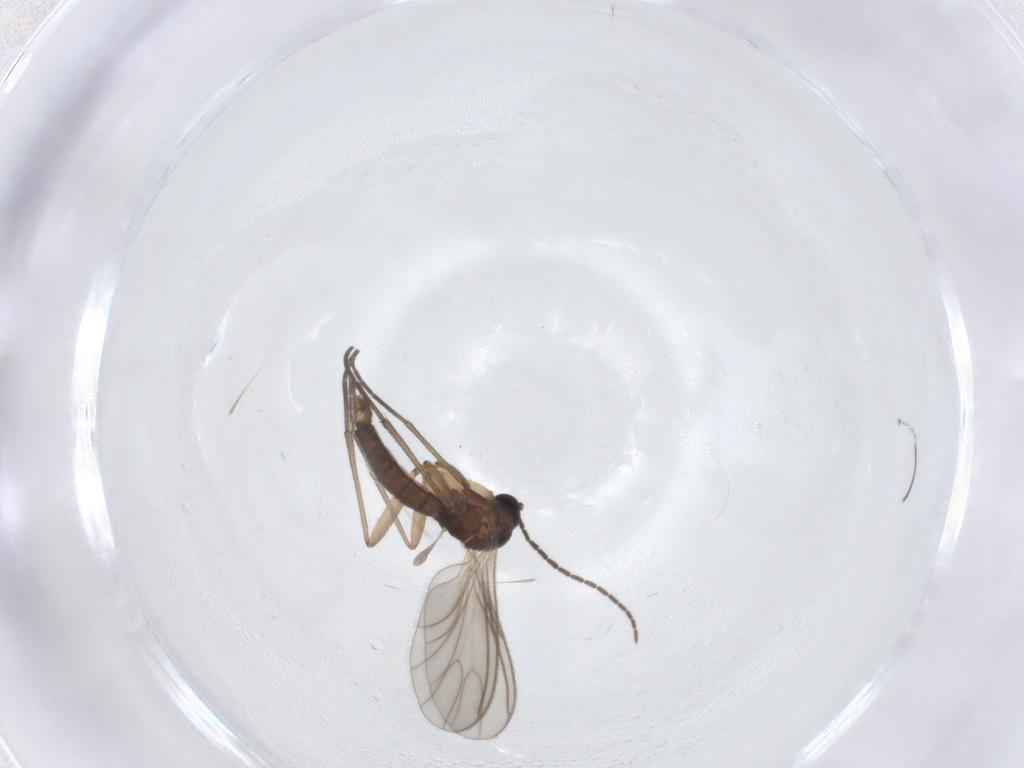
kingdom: Animalia
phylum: Arthropoda
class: Insecta
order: Diptera
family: Sciaridae
